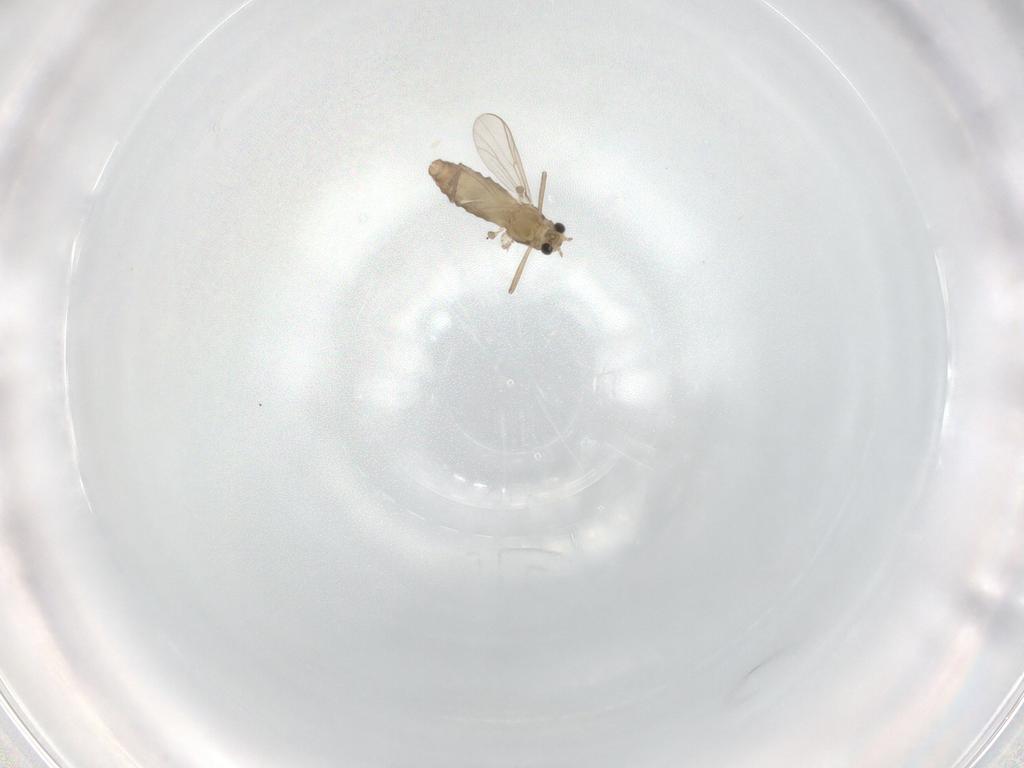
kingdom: Animalia
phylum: Arthropoda
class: Insecta
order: Diptera
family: Chironomidae
